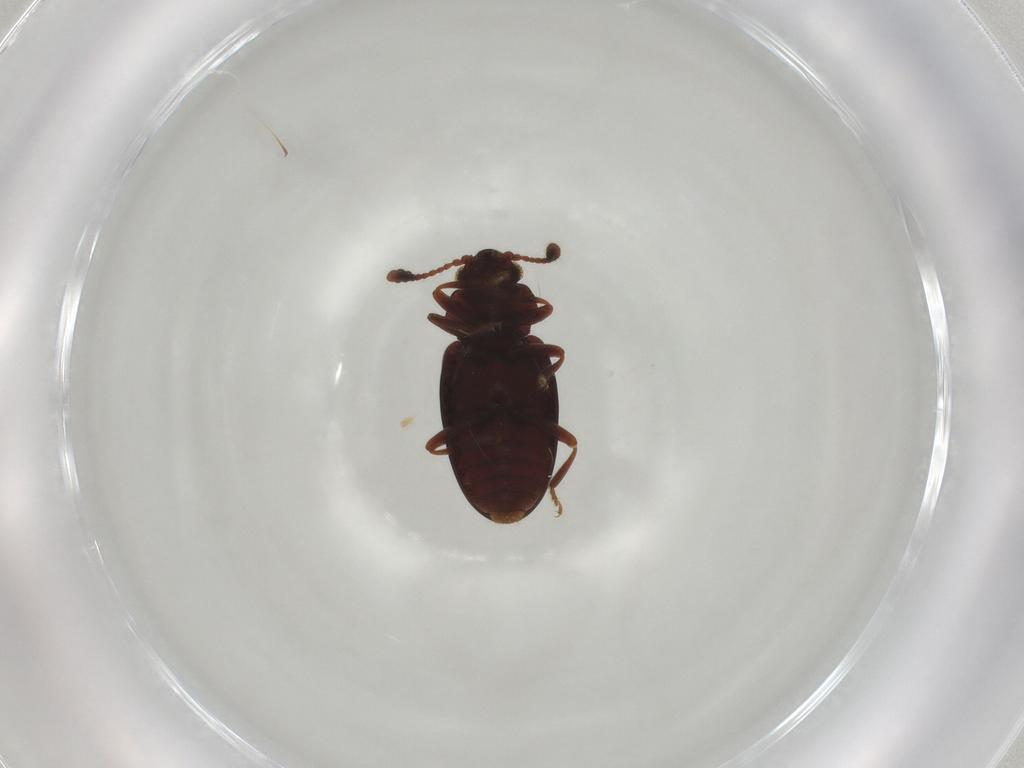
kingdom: Animalia
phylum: Arthropoda
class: Insecta
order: Coleoptera
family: Erotylidae
